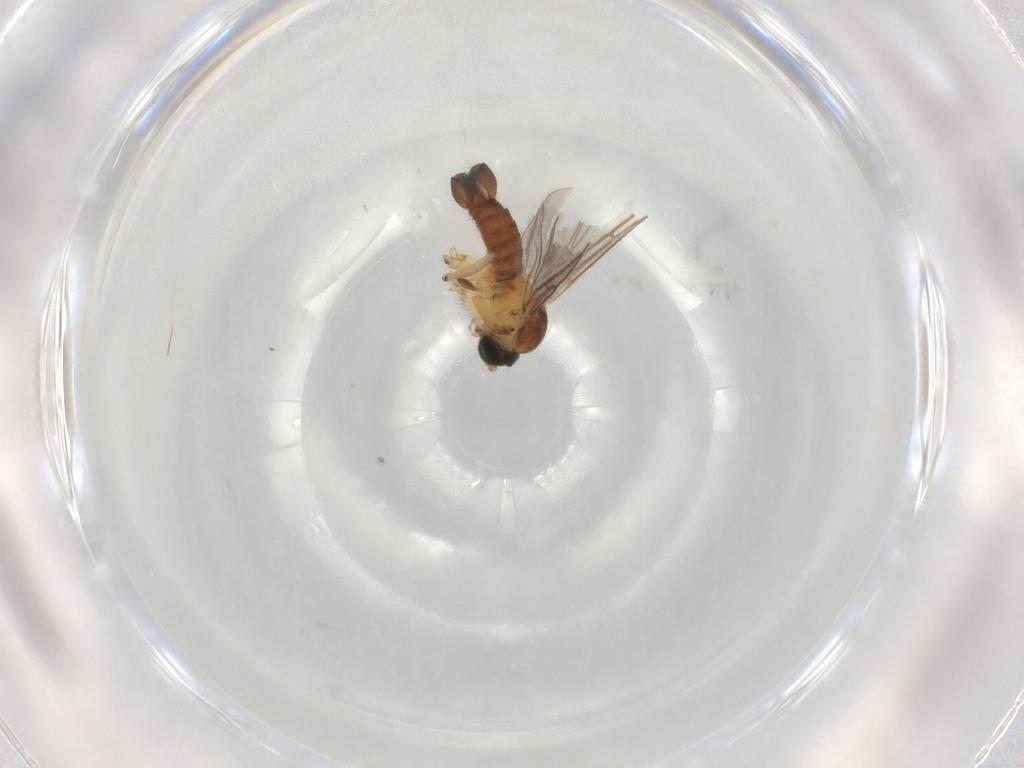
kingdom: Animalia
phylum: Arthropoda
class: Insecta
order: Diptera
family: Sciaridae
